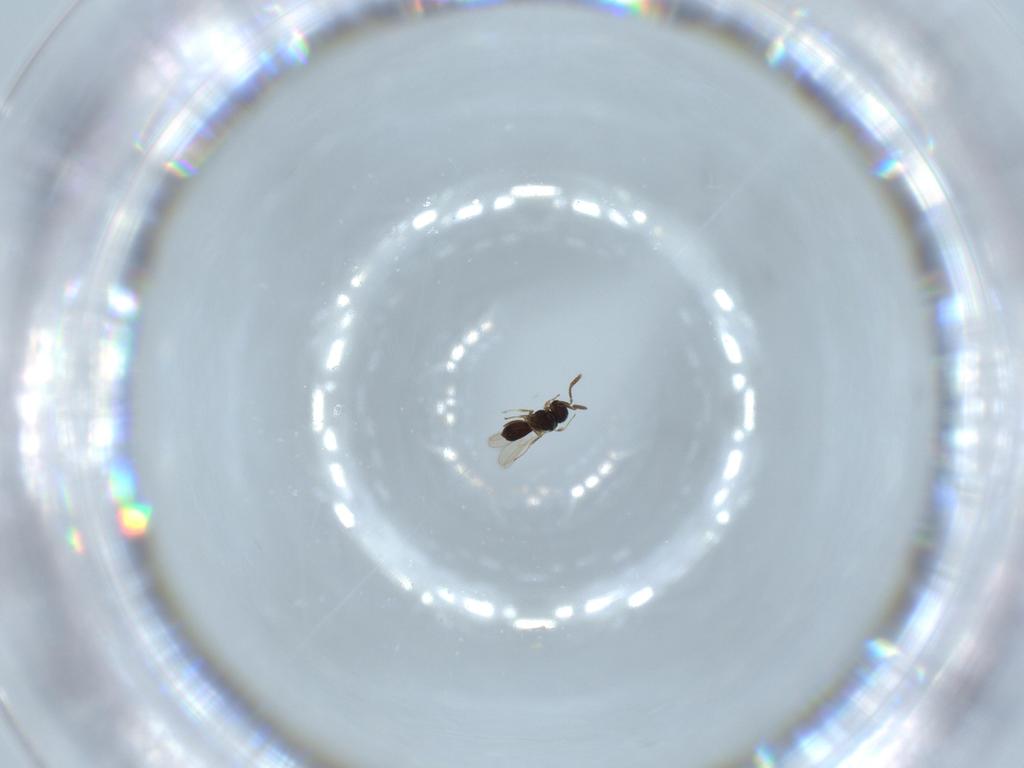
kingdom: Animalia
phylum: Arthropoda
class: Insecta
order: Hymenoptera
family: Scelionidae
